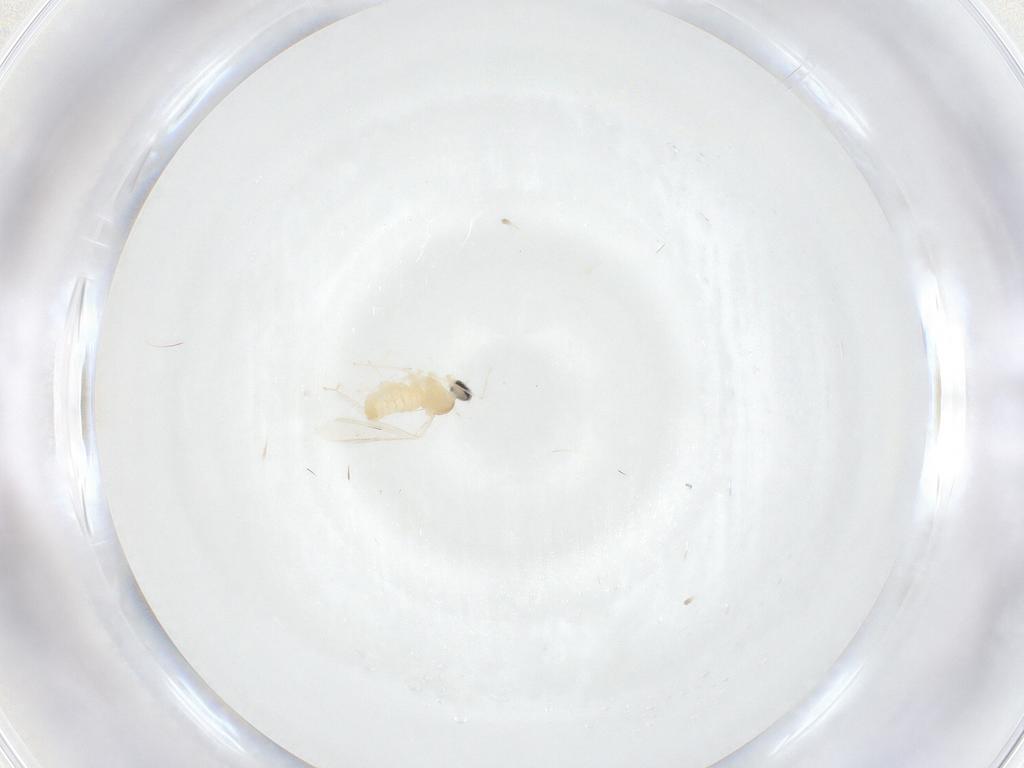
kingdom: Animalia
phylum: Arthropoda
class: Insecta
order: Diptera
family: Cecidomyiidae
